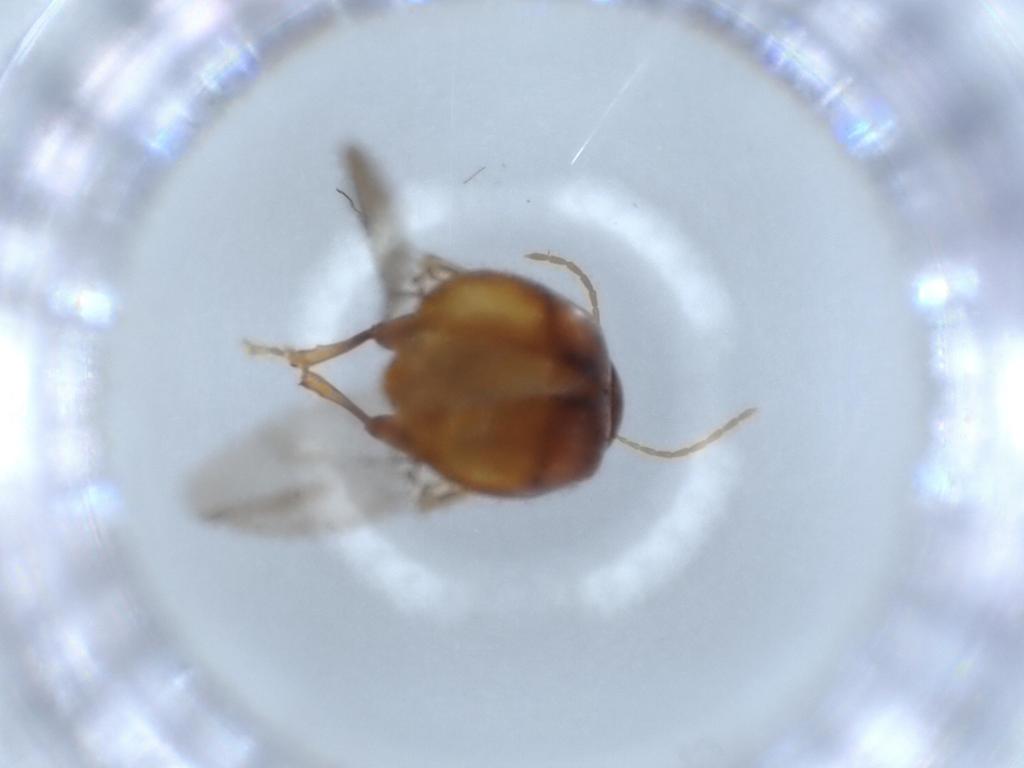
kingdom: Animalia
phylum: Arthropoda
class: Insecta
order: Coleoptera
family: Chrysomelidae
